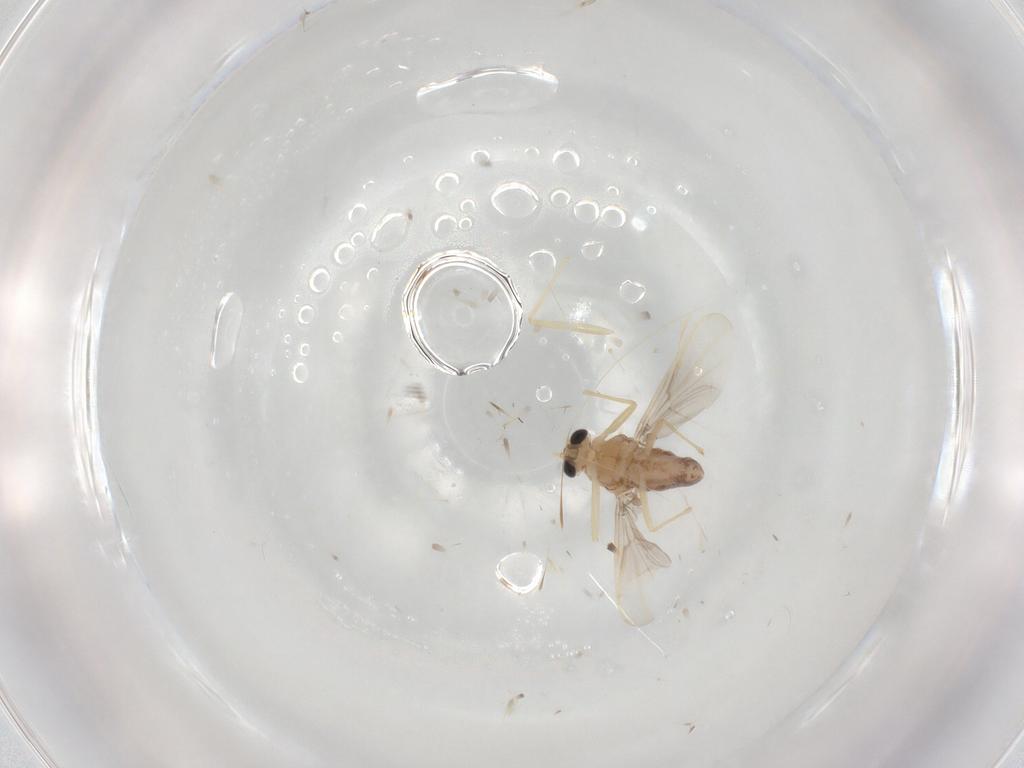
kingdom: Animalia
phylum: Arthropoda
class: Insecta
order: Diptera
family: Chironomidae
